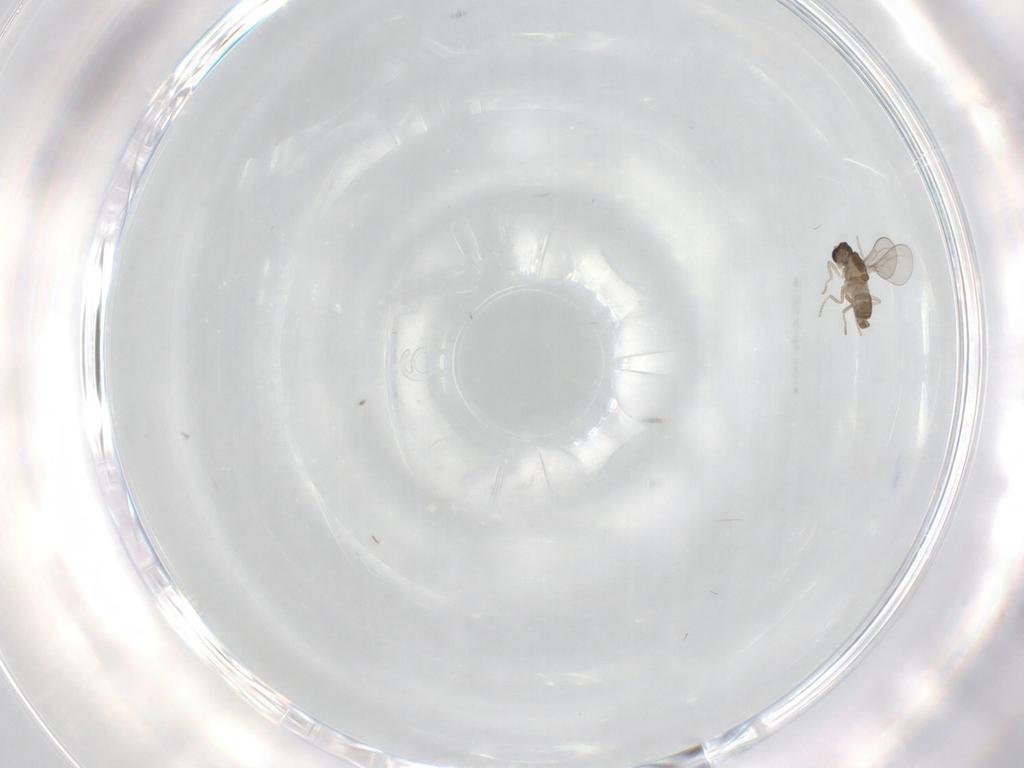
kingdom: Animalia
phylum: Arthropoda
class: Insecta
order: Diptera
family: Cecidomyiidae
